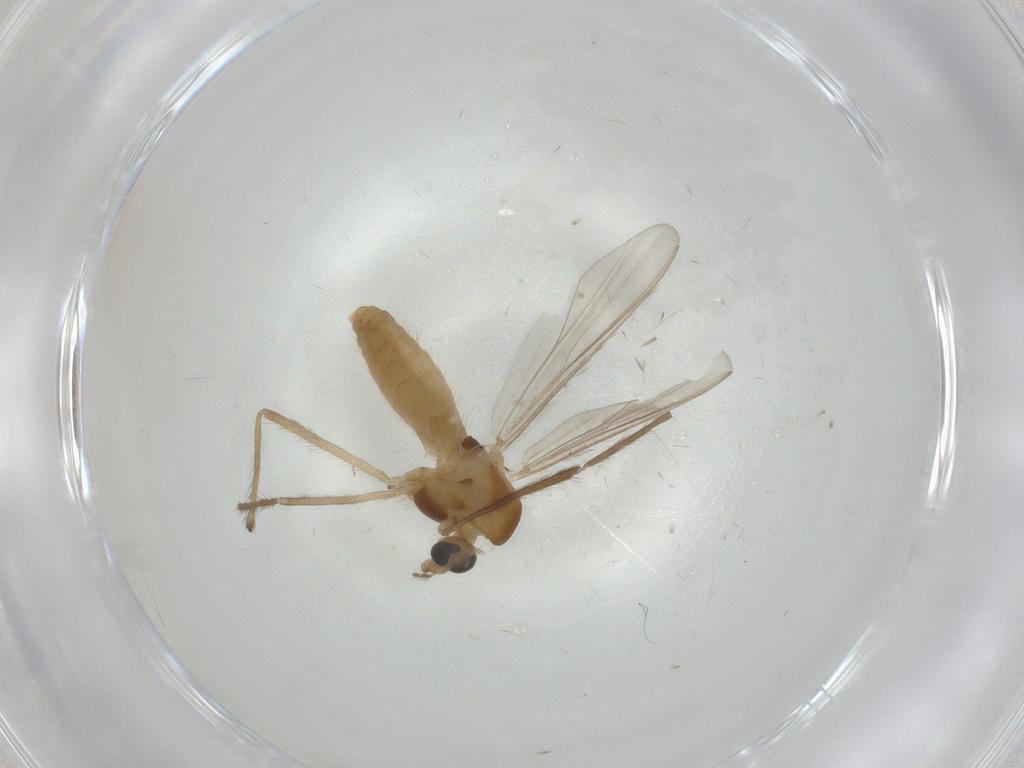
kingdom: Animalia
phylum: Arthropoda
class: Insecta
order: Diptera
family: Chironomidae
